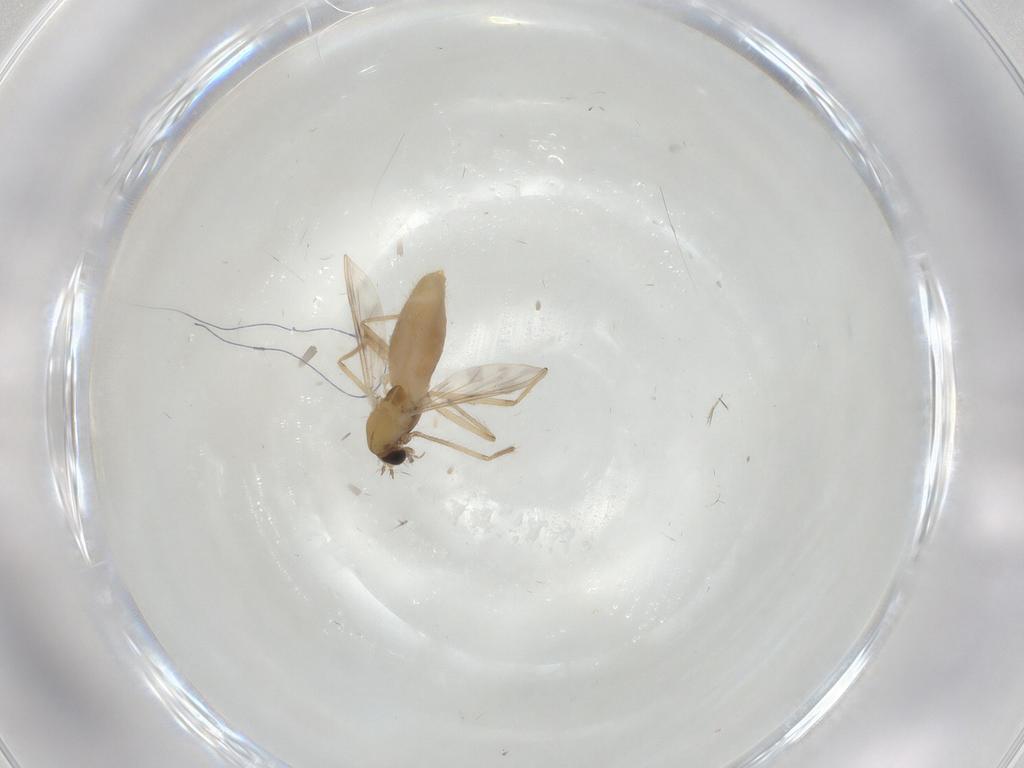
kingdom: Animalia
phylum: Arthropoda
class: Insecta
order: Diptera
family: Chironomidae
